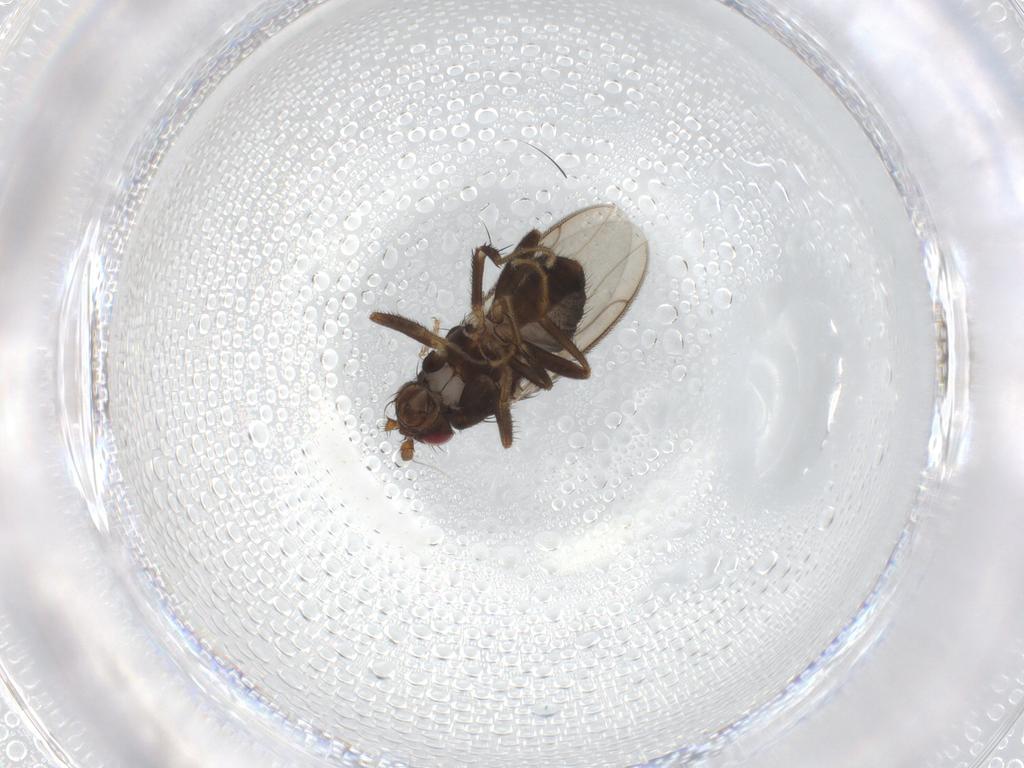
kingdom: Animalia
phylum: Arthropoda
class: Insecta
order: Diptera
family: Sphaeroceridae
